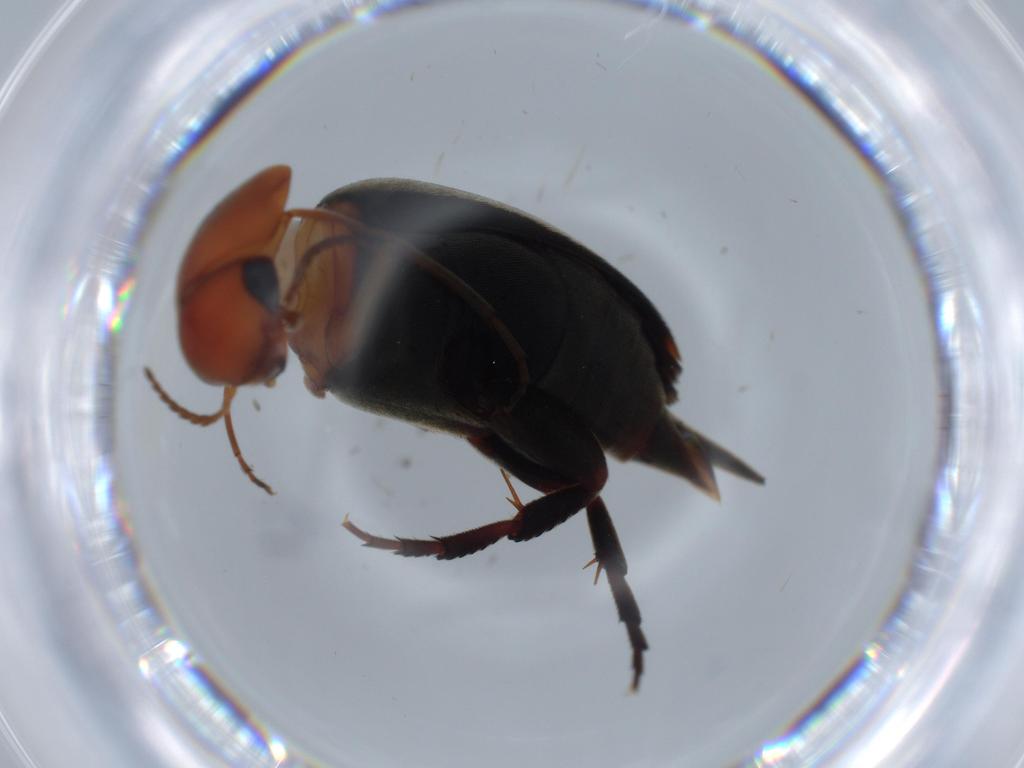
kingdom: Animalia
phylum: Arthropoda
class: Insecta
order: Coleoptera
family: Mordellidae
